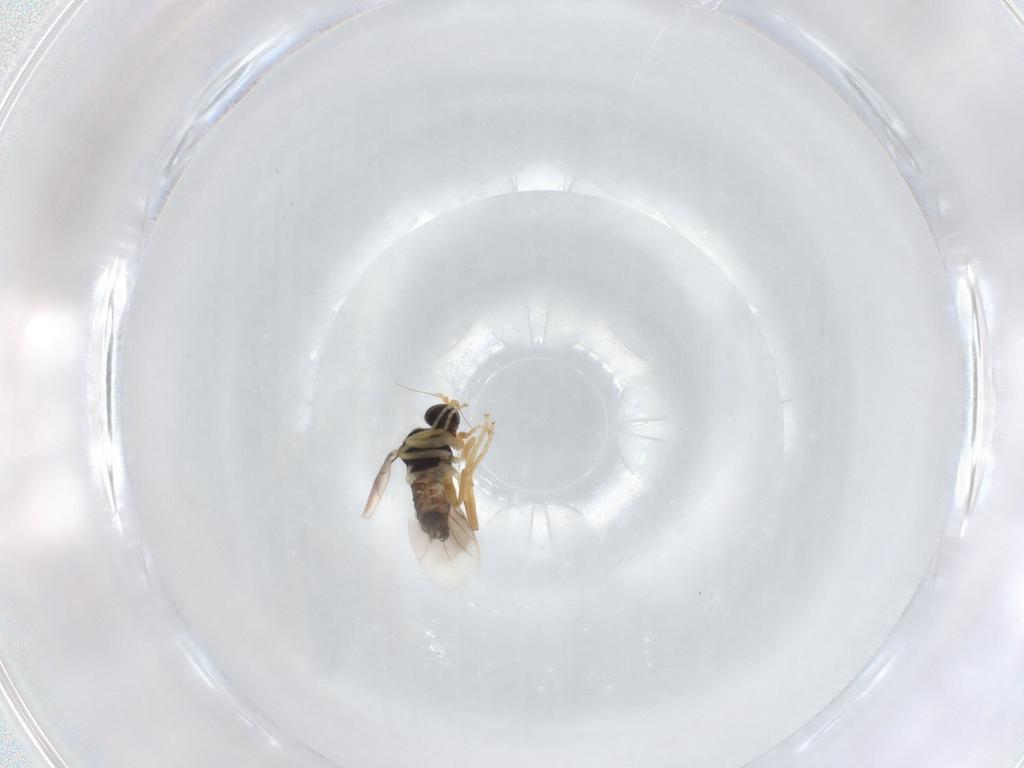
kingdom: Animalia
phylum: Arthropoda
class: Insecta
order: Diptera
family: Hybotidae
